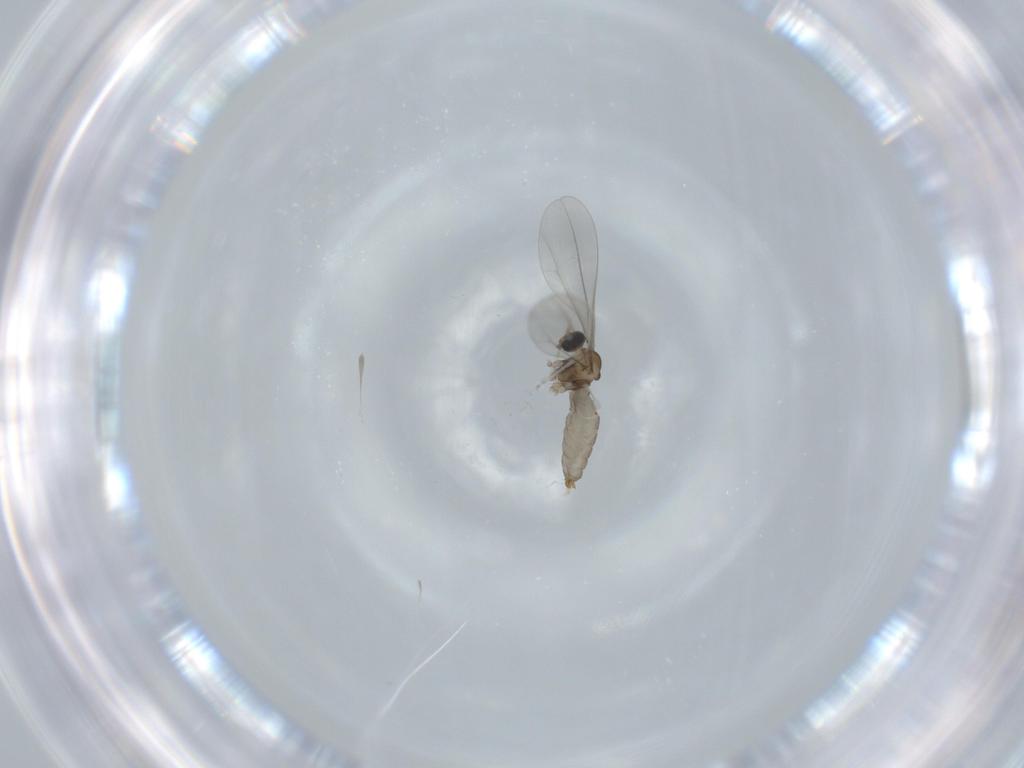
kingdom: Animalia
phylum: Arthropoda
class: Insecta
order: Diptera
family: Cecidomyiidae
